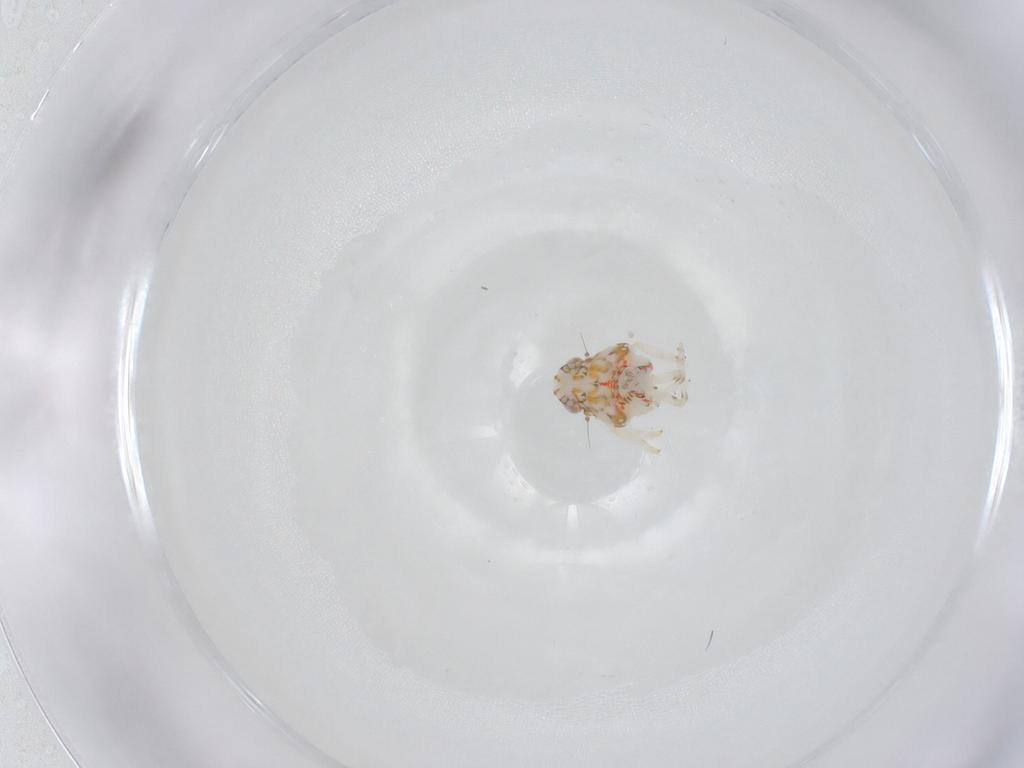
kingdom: Animalia
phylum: Arthropoda
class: Insecta
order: Hemiptera
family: Nogodinidae
